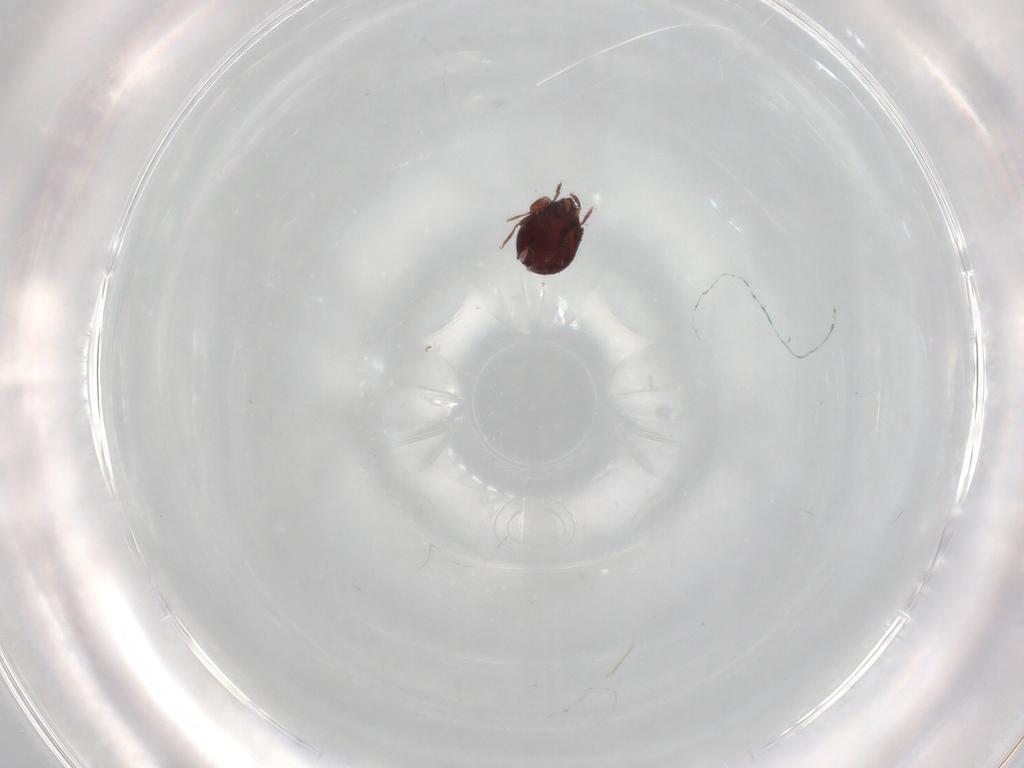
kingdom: Animalia
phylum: Arthropoda
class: Arachnida
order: Sarcoptiformes
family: Humerobatidae
